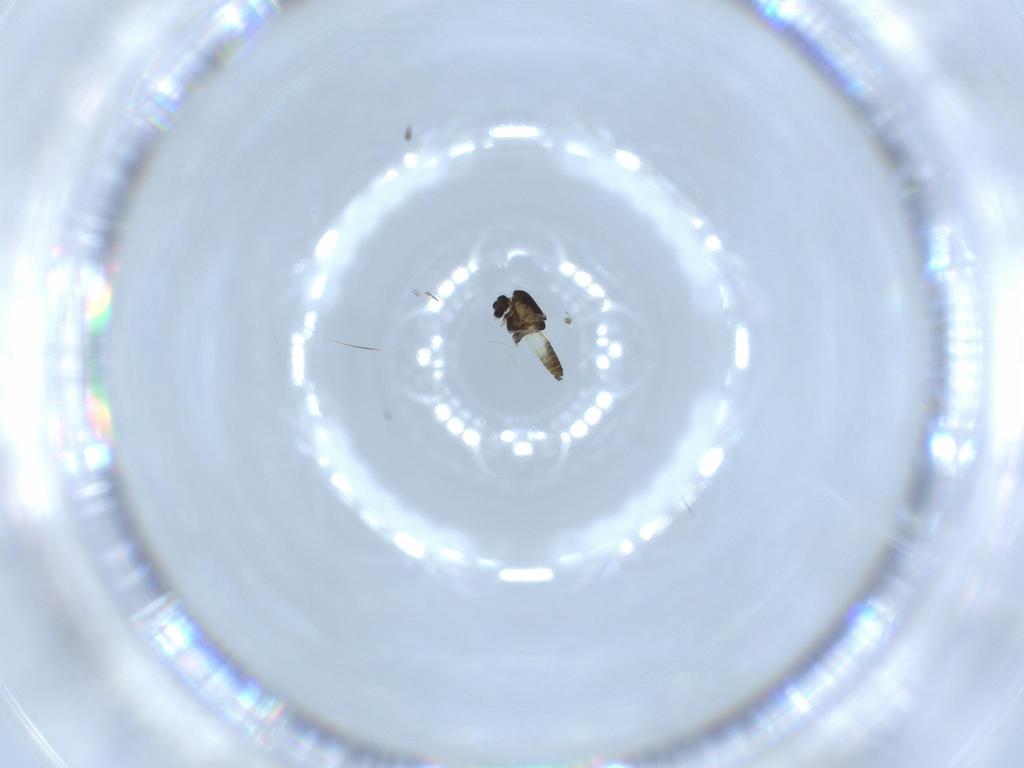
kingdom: Animalia
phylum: Arthropoda
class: Insecta
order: Diptera
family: Chironomidae
